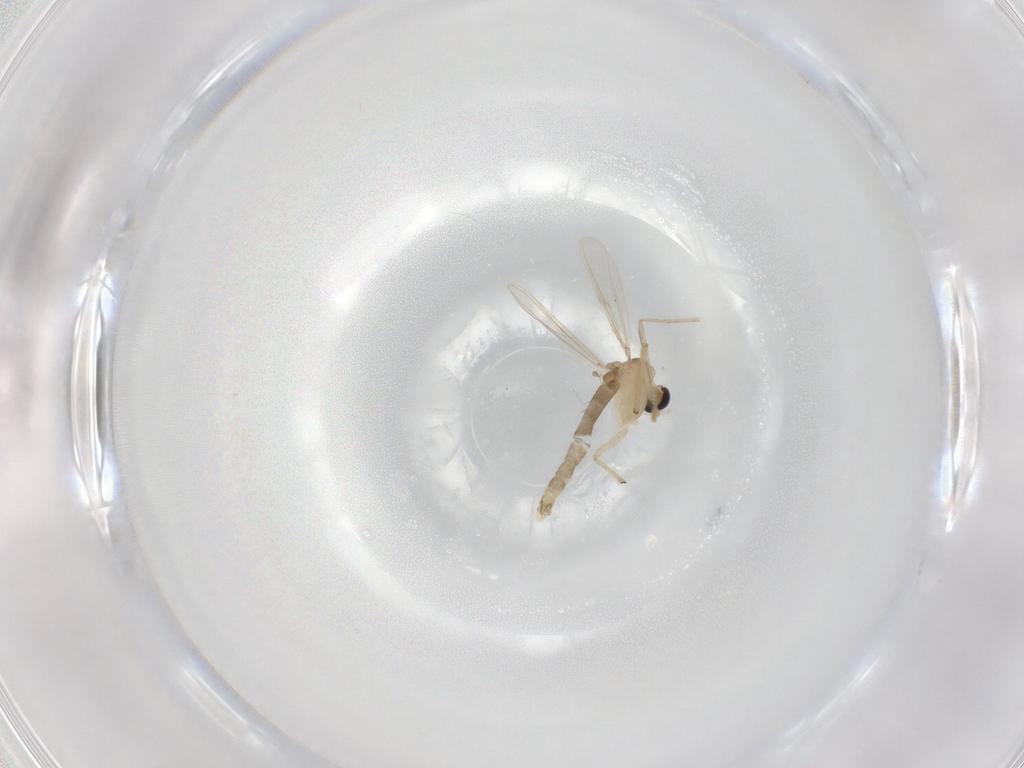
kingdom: Animalia
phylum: Arthropoda
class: Insecta
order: Diptera
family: Chironomidae
